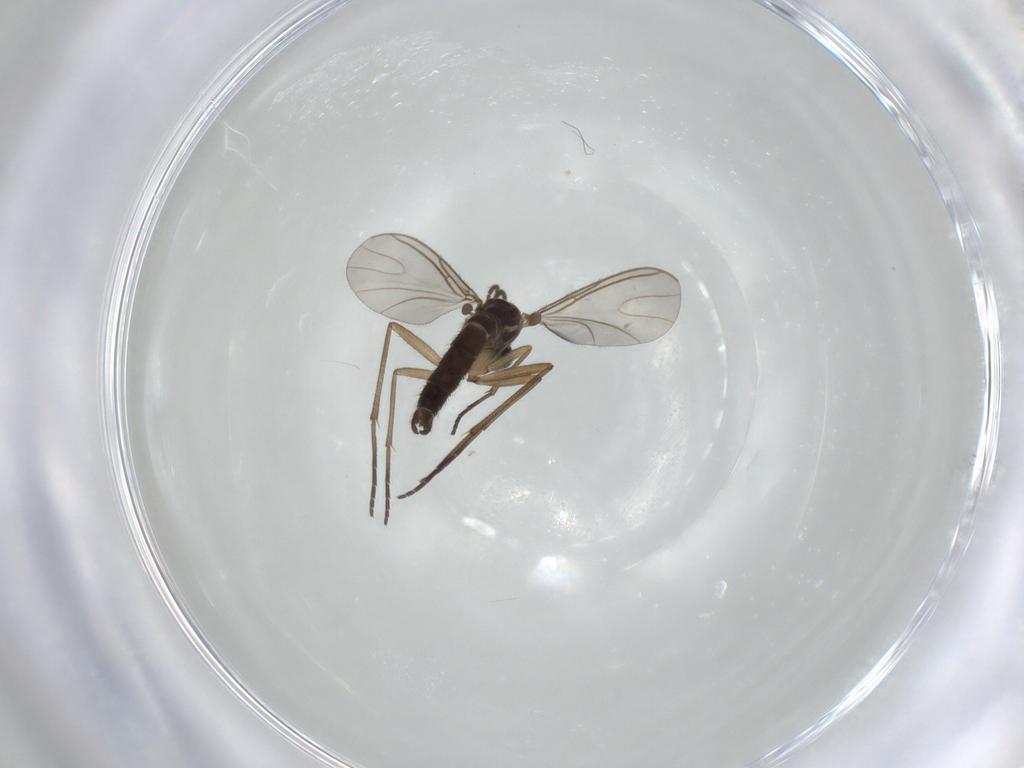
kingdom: Animalia
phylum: Arthropoda
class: Insecta
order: Diptera
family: Sciaridae
